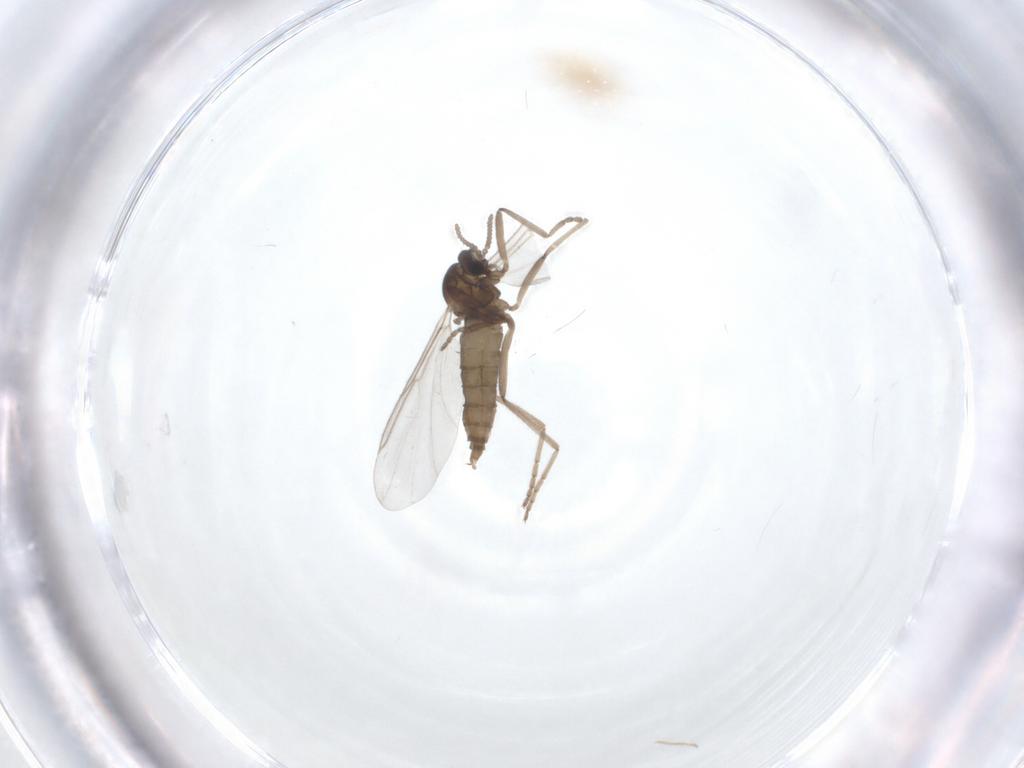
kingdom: Animalia
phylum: Arthropoda
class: Insecta
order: Diptera
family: Cecidomyiidae
